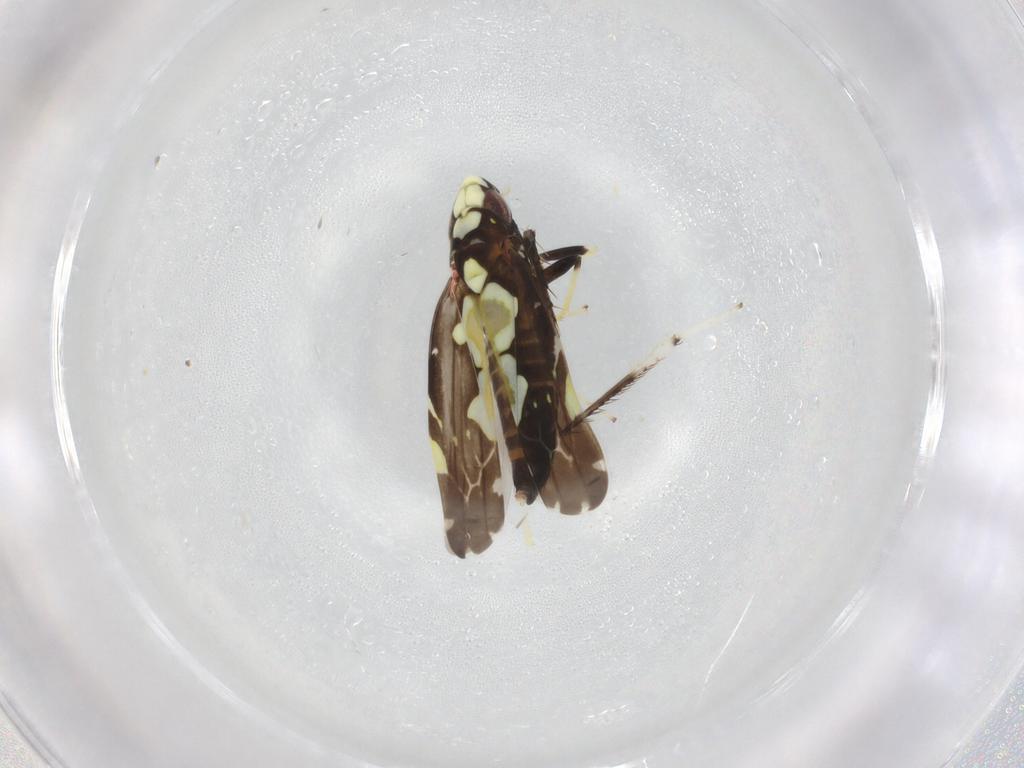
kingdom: Animalia
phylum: Arthropoda
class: Insecta
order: Hemiptera
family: Cicadellidae
